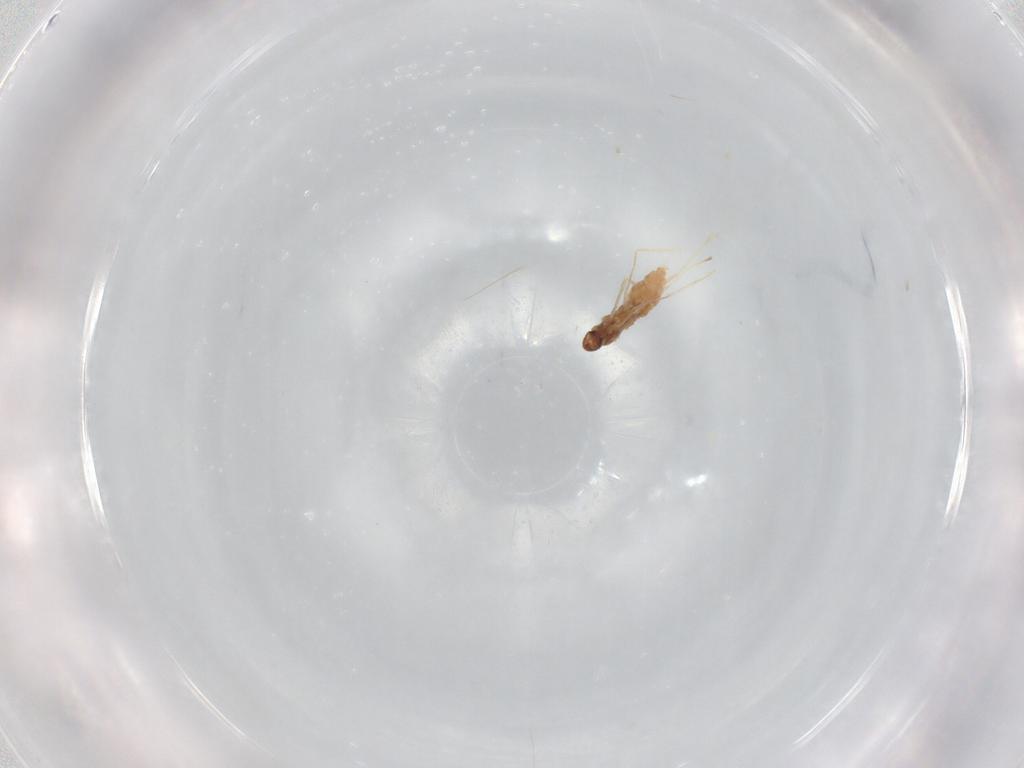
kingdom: Animalia
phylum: Arthropoda
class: Insecta
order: Diptera
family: Cecidomyiidae
